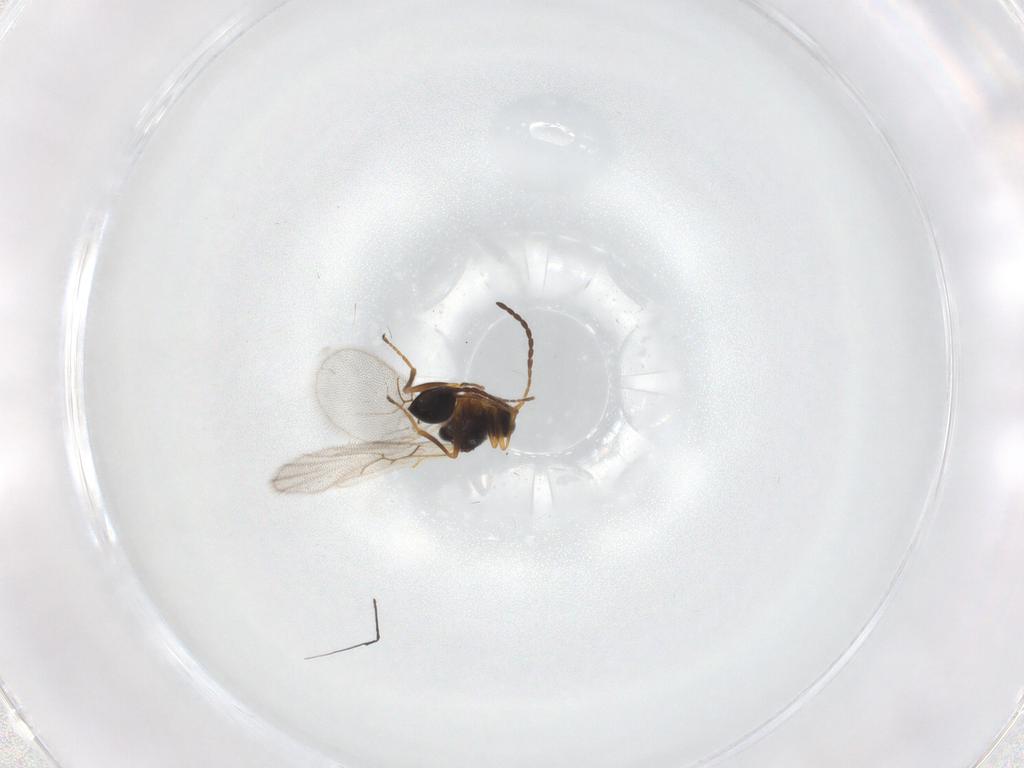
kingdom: Animalia
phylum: Arthropoda
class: Insecta
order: Hymenoptera
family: Figitidae
